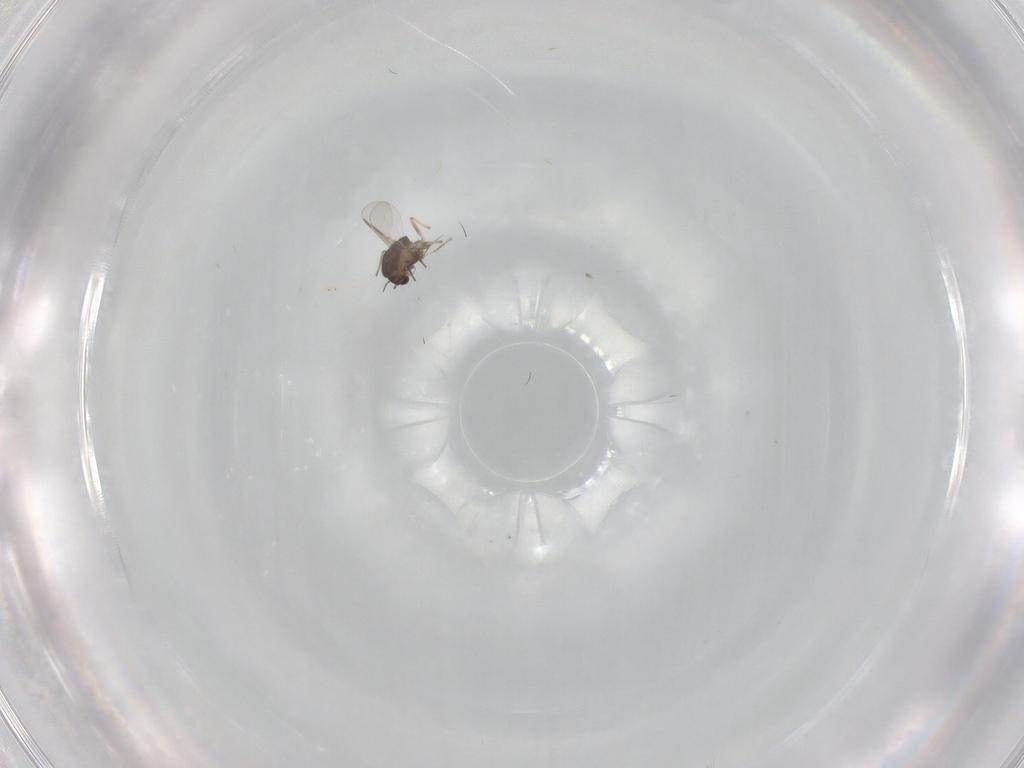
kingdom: Animalia
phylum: Arthropoda
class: Insecta
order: Diptera
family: Chironomidae
